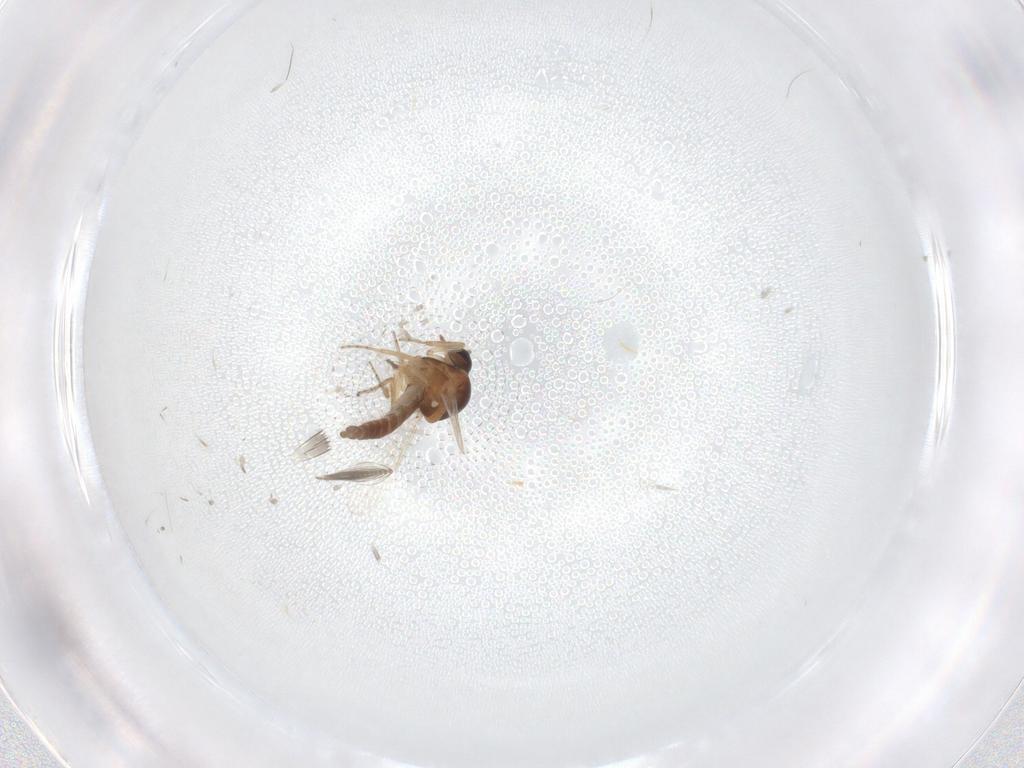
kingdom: Animalia
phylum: Arthropoda
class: Insecta
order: Diptera
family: Ceratopogonidae
